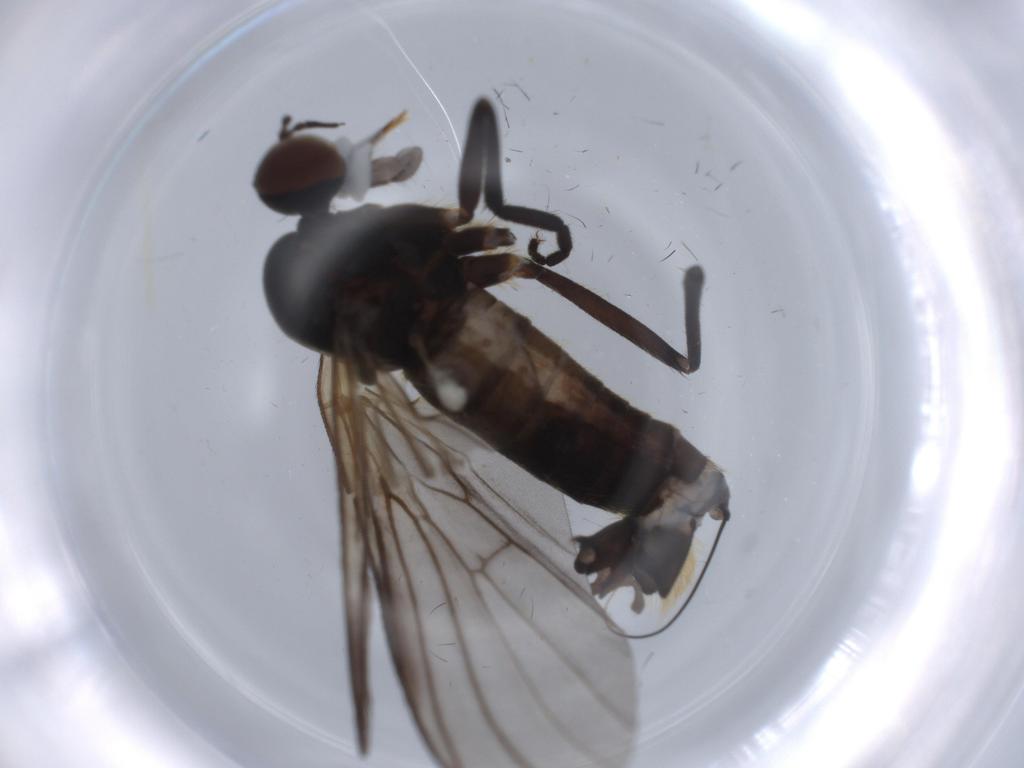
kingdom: Animalia
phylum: Arthropoda
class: Insecta
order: Diptera
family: Empididae
